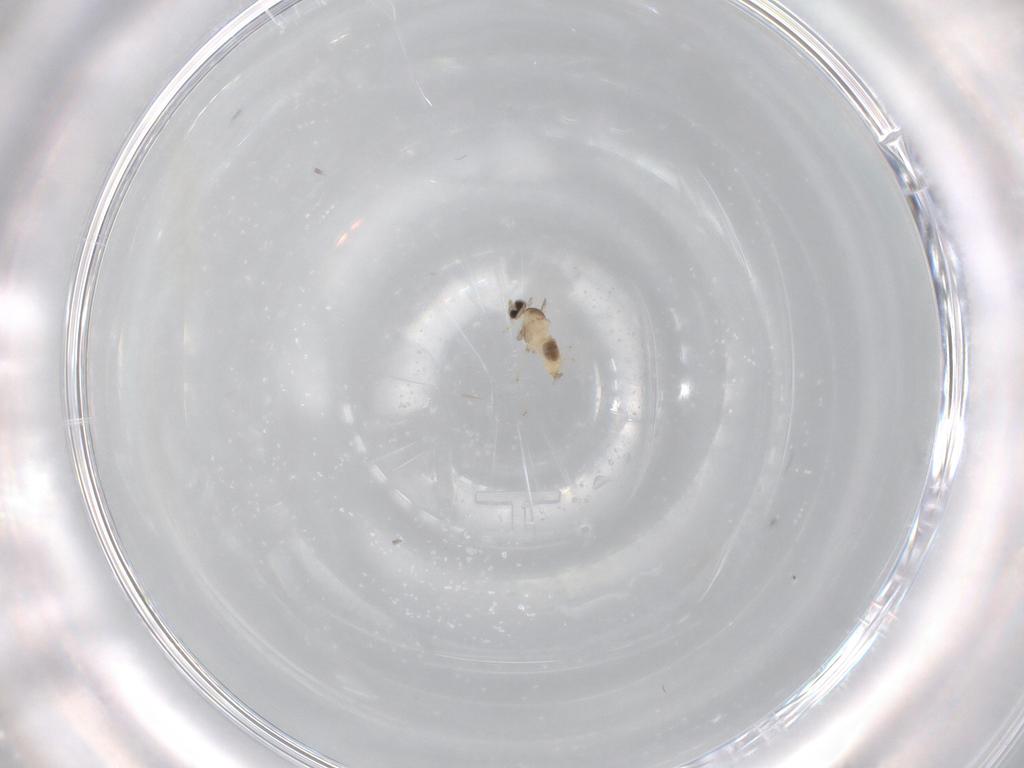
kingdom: Animalia
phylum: Arthropoda
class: Insecta
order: Diptera
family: Cecidomyiidae
